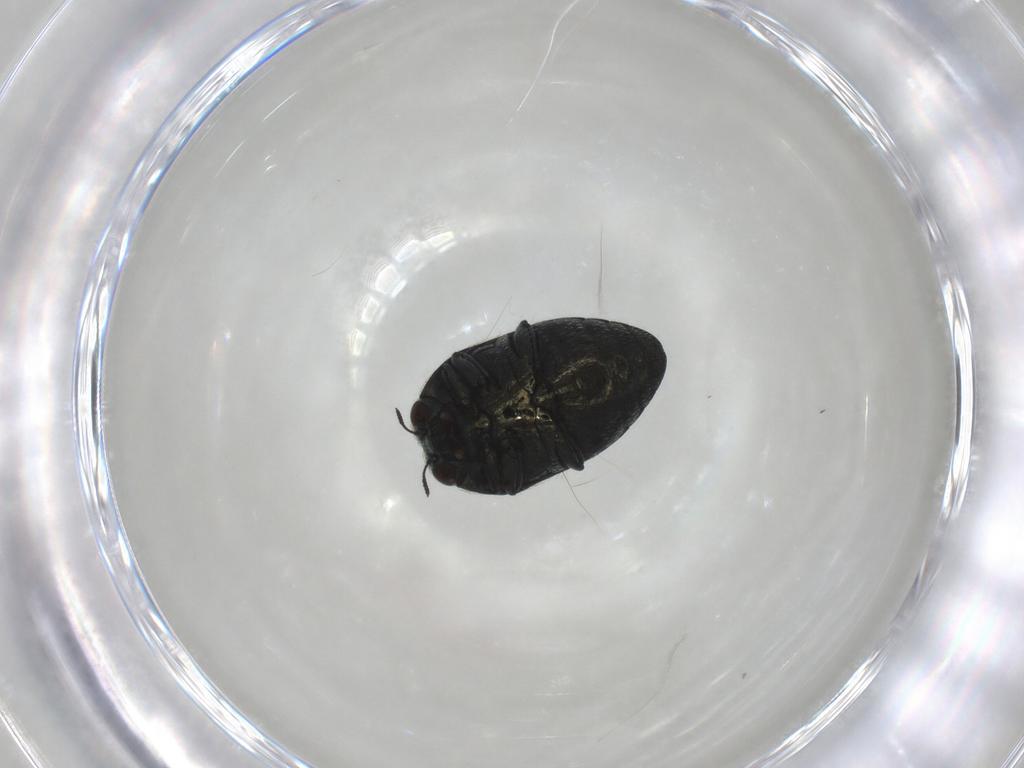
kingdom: Animalia
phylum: Arthropoda
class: Insecta
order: Coleoptera
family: Buprestidae
